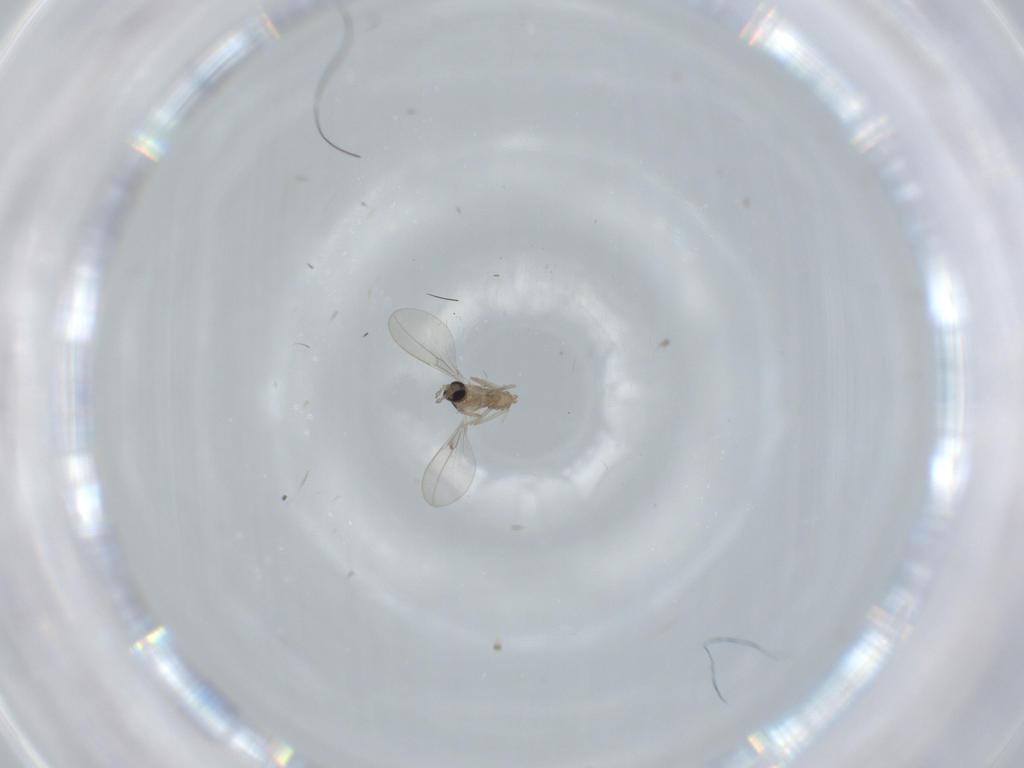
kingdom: Animalia
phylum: Arthropoda
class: Insecta
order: Diptera
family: Cecidomyiidae
